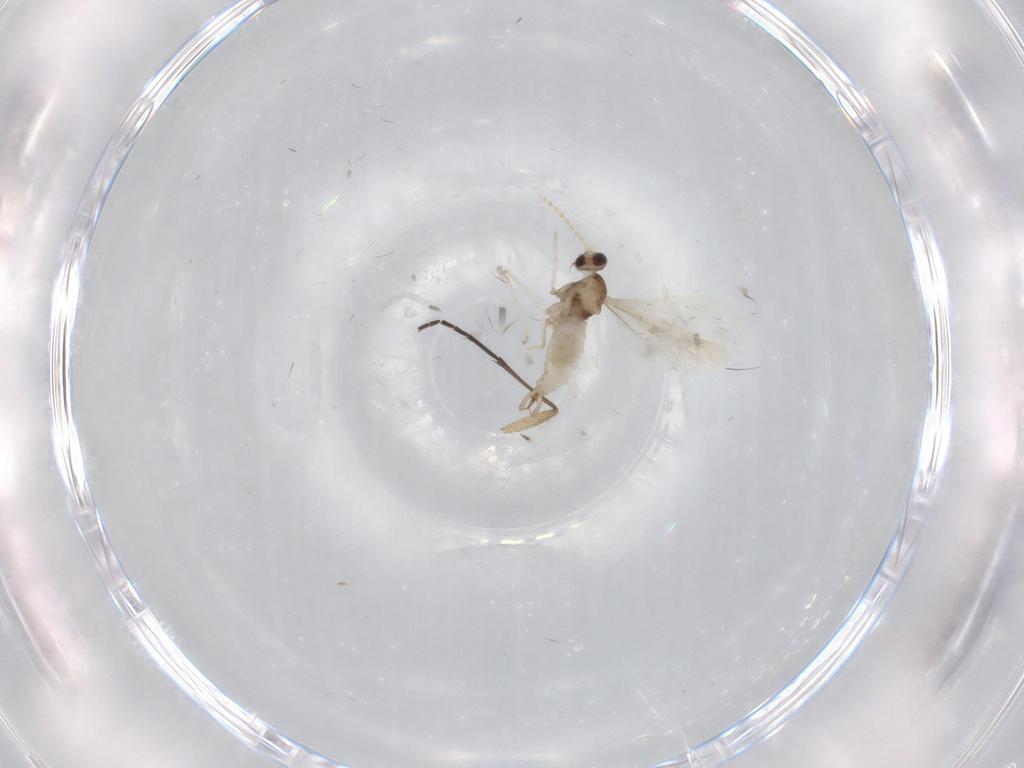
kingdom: Animalia
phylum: Arthropoda
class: Insecta
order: Diptera
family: Cecidomyiidae
